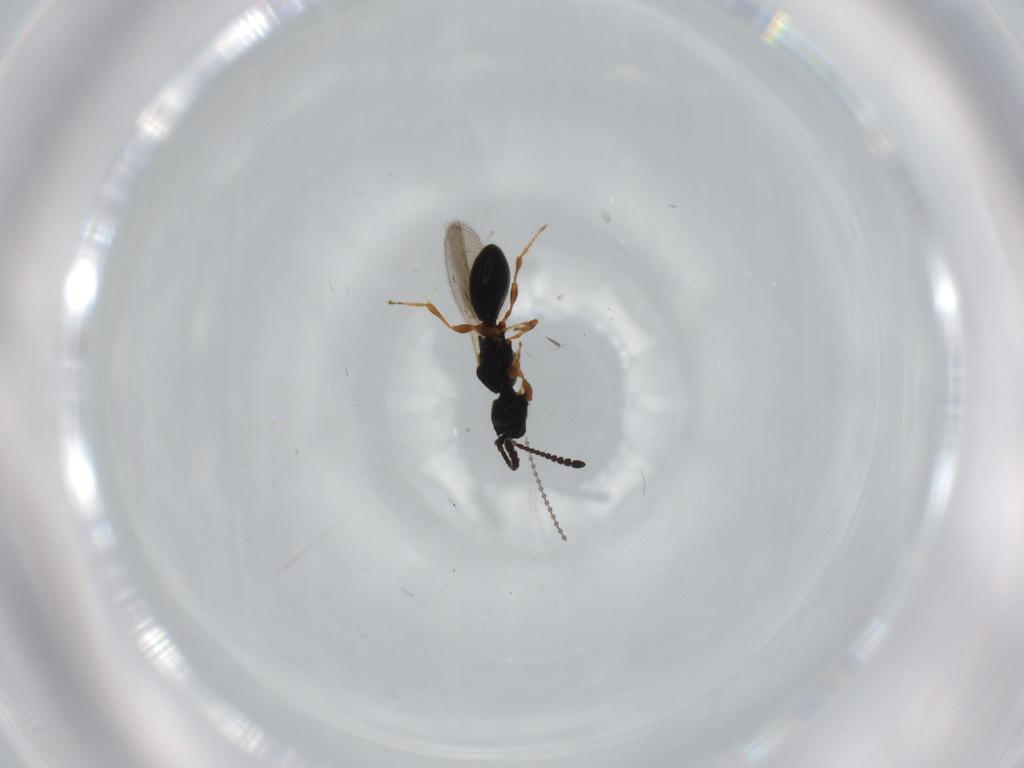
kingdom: Animalia
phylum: Arthropoda
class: Insecta
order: Hymenoptera
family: Diapriidae
